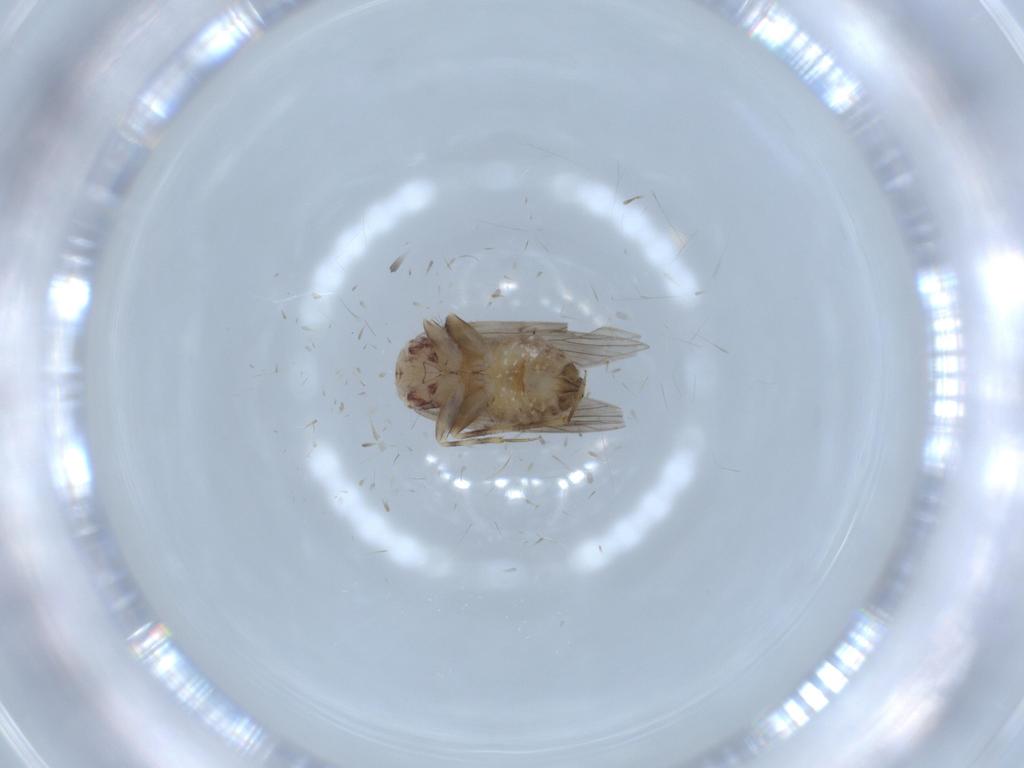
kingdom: Animalia
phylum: Arthropoda
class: Insecta
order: Psocodea
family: Lepidopsocidae
